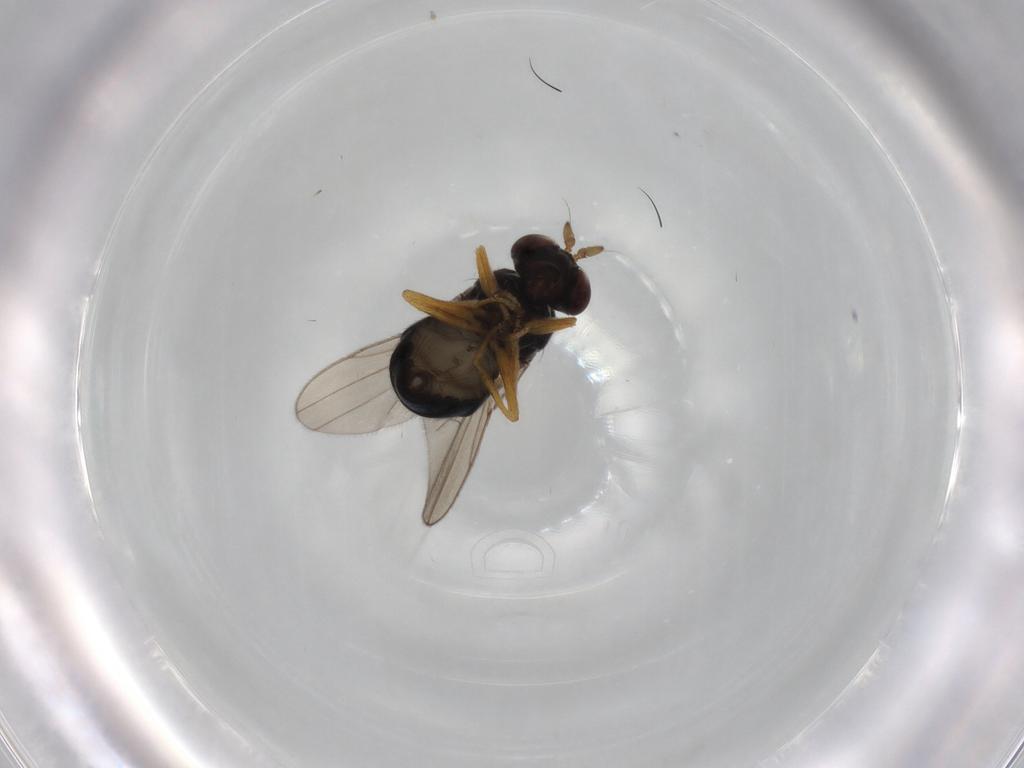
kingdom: Animalia
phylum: Arthropoda
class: Insecta
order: Diptera
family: Ephydridae
